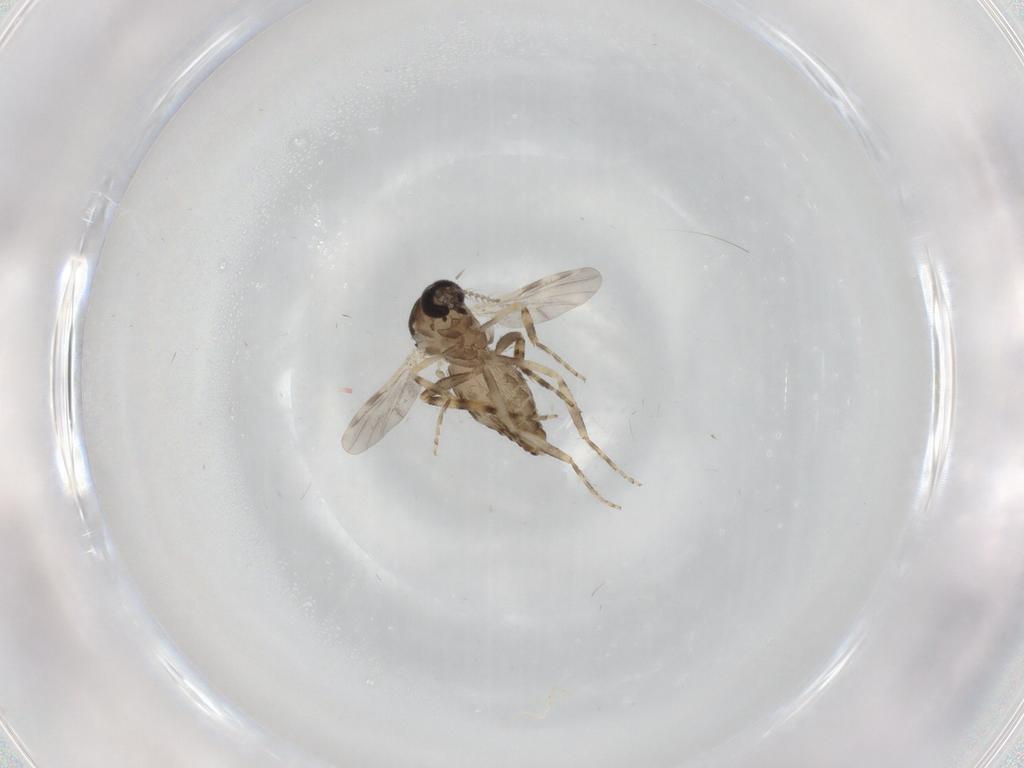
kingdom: Animalia
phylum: Arthropoda
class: Insecta
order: Diptera
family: Ceratopogonidae
